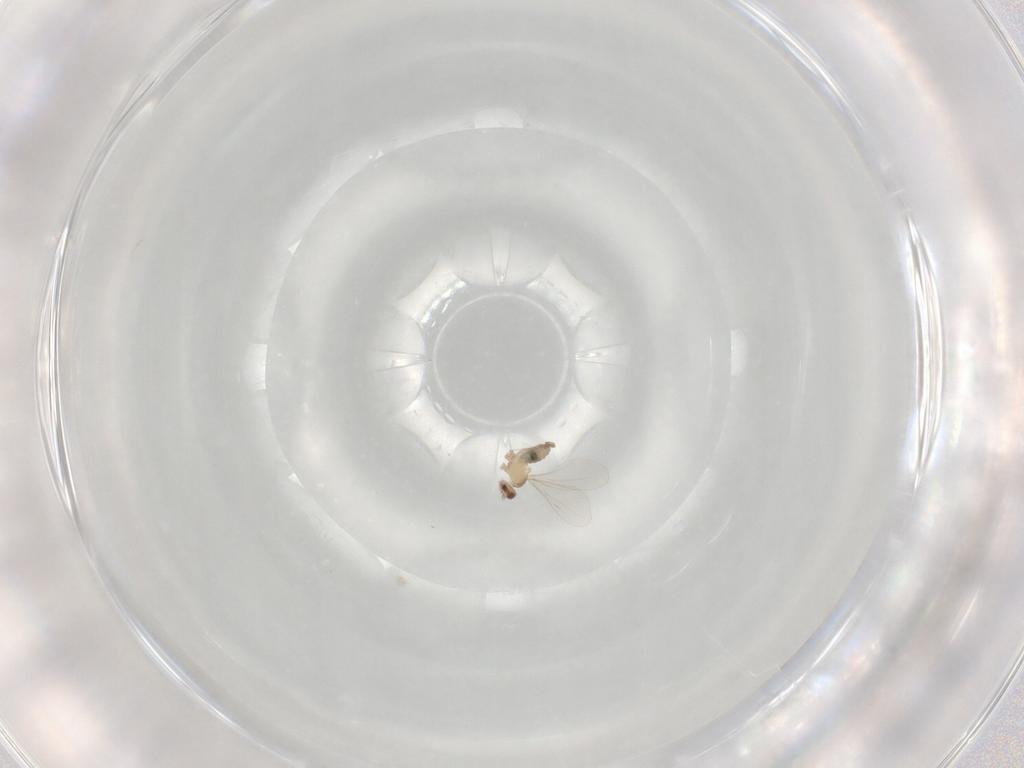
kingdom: Animalia
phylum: Arthropoda
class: Insecta
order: Diptera
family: Cecidomyiidae
